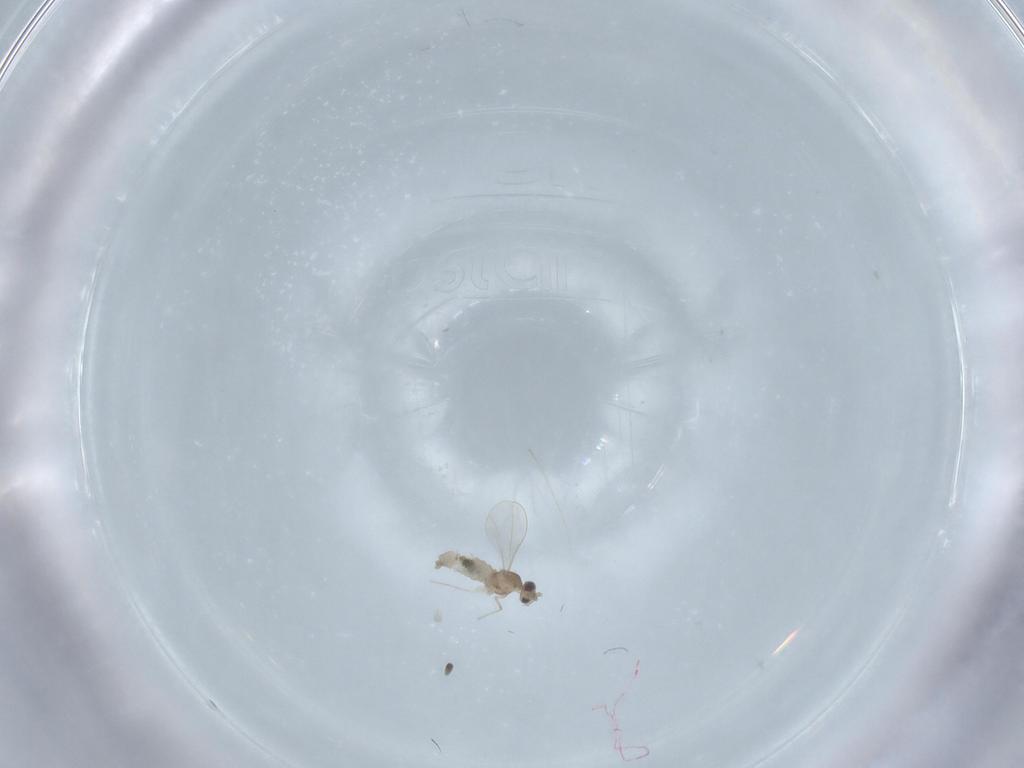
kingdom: Animalia
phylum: Arthropoda
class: Insecta
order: Diptera
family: Cecidomyiidae
